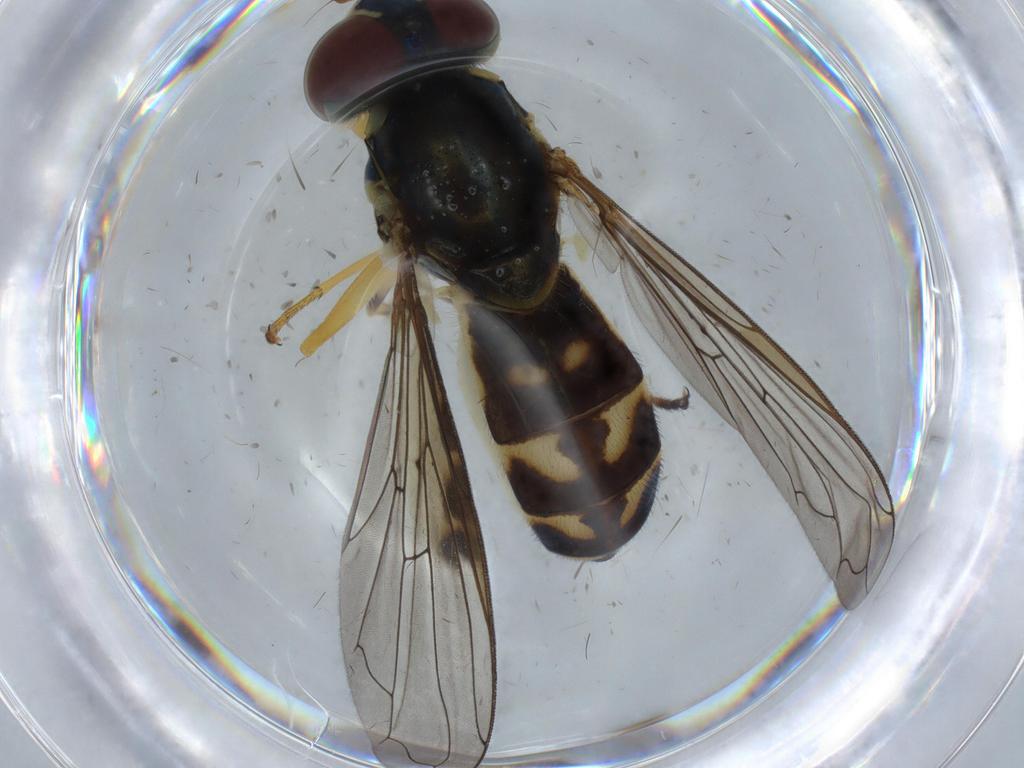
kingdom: Animalia
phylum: Arthropoda
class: Insecta
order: Diptera
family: Syrphidae
